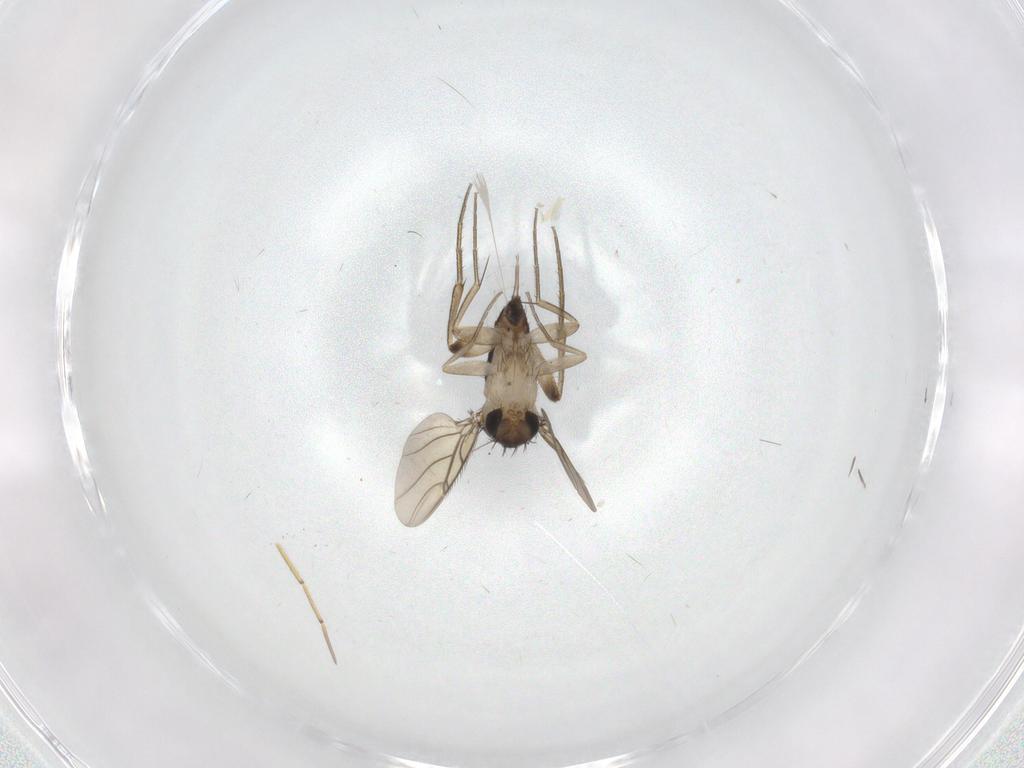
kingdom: Animalia
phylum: Arthropoda
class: Insecta
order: Diptera
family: Phoridae
